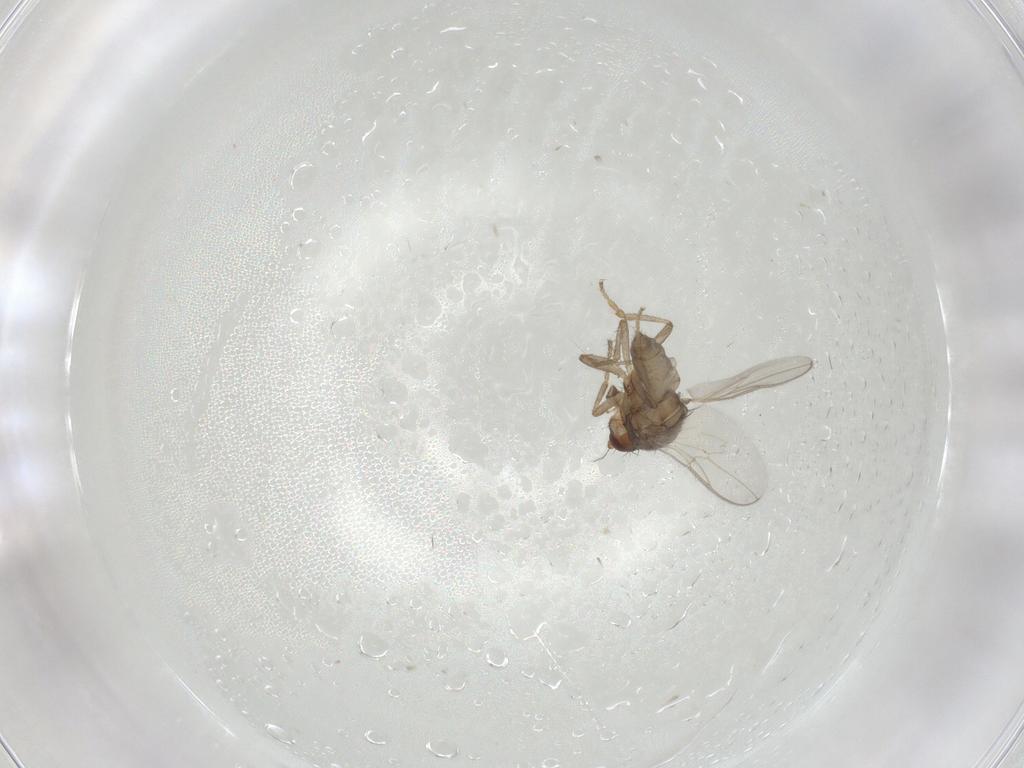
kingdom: Animalia
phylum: Arthropoda
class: Insecta
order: Diptera
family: Sphaeroceridae
